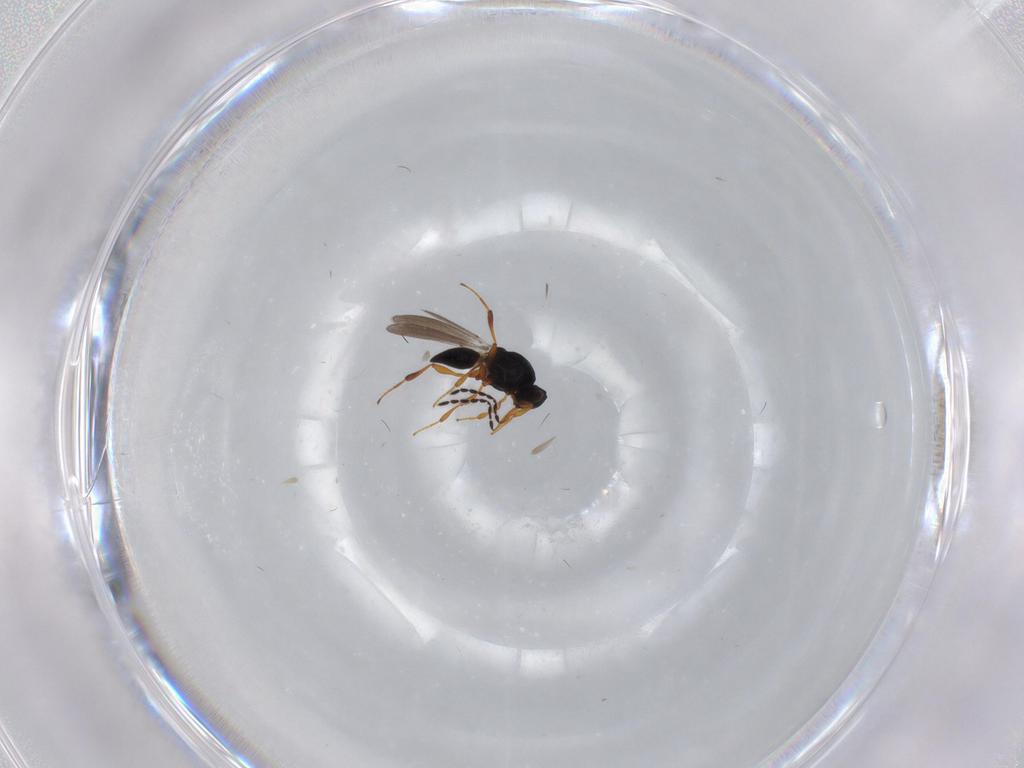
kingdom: Animalia
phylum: Arthropoda
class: Insecta
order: Hymenoptera
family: Platygastridae
